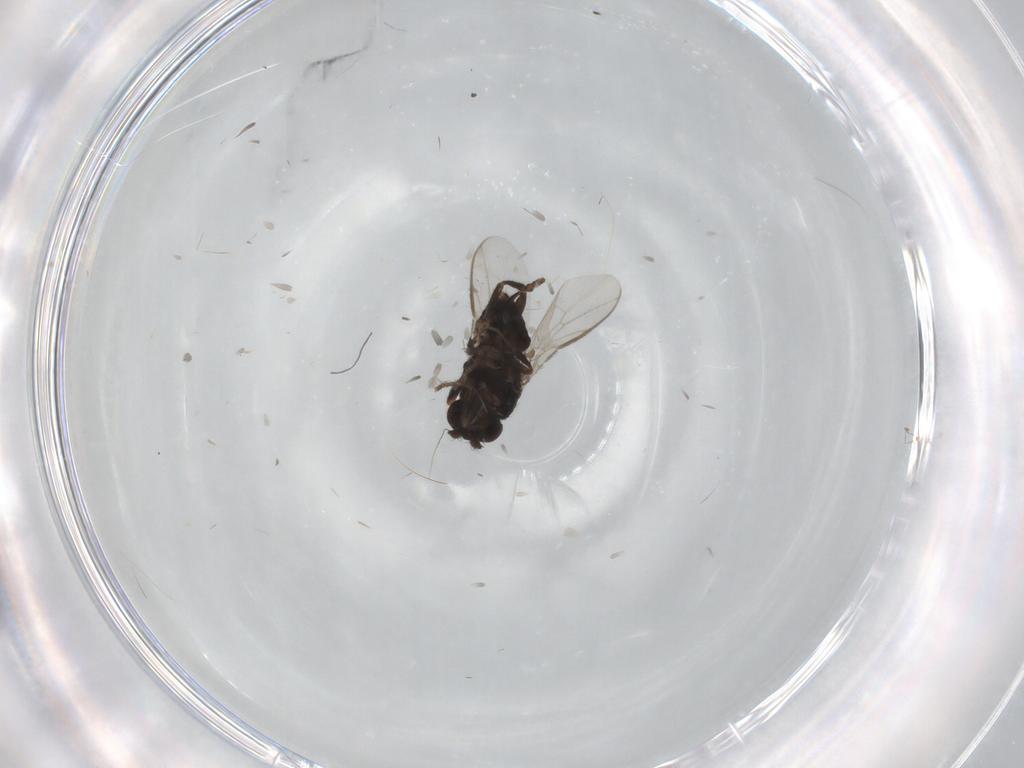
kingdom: Animalia
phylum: Arthropoda
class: Insecta
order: Diptera
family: Sphaeroceridae
